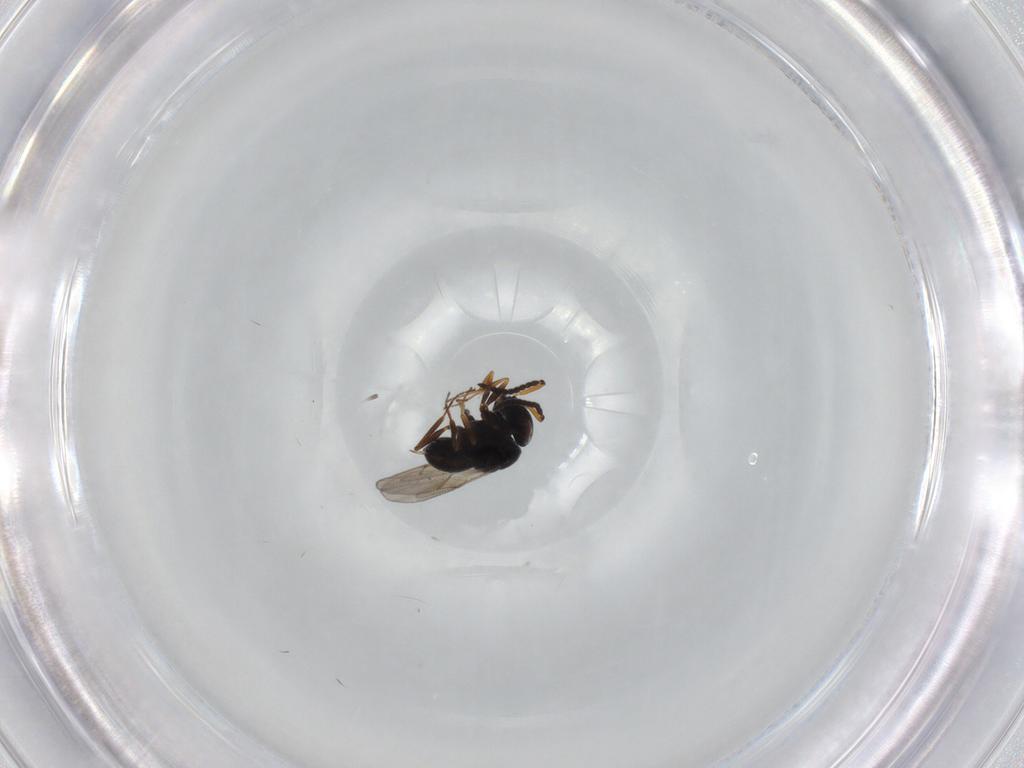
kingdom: Animalia
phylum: Arthropoda
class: Insecta
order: Hymenoptera
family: Scelionidae
